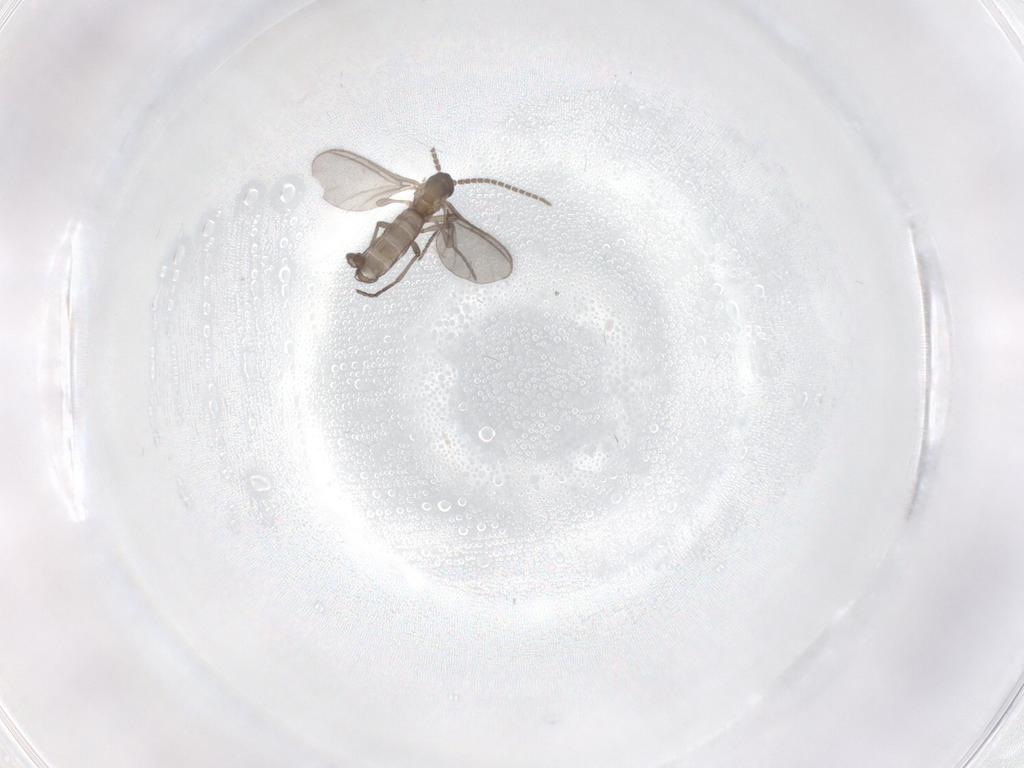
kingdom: Animalia
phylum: Arthropoda
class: Insecta
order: Diptera
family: Sciaridae
